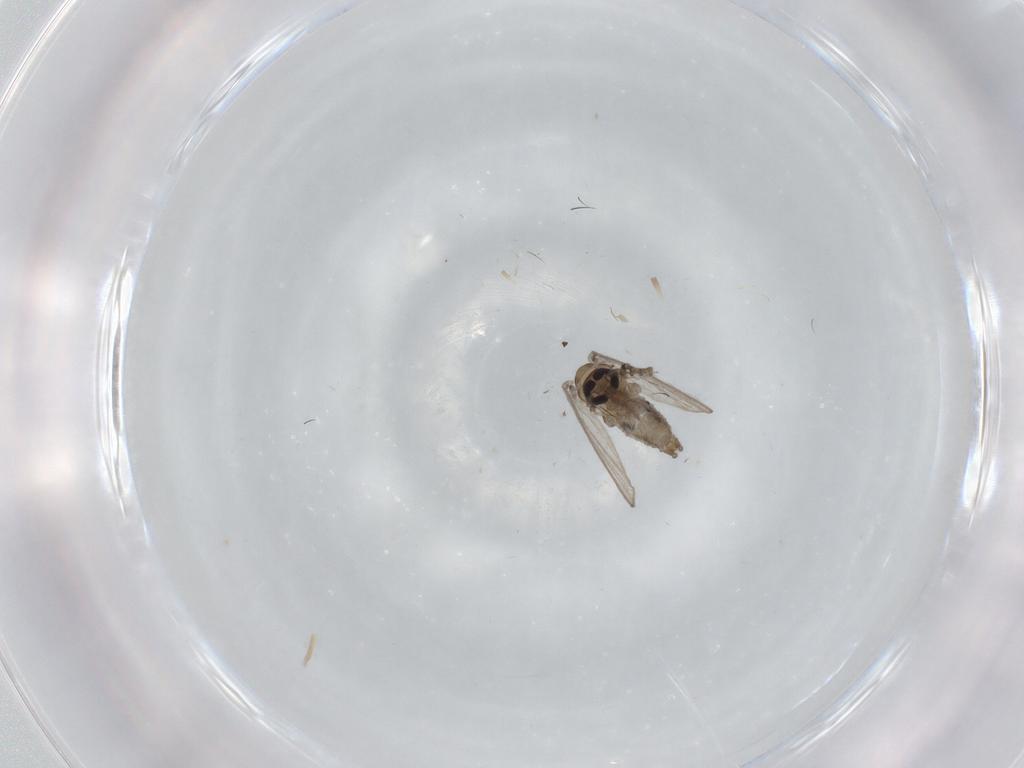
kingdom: Animalia
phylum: Arthropoda
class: Insecta
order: Diptera
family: Psychodidae
